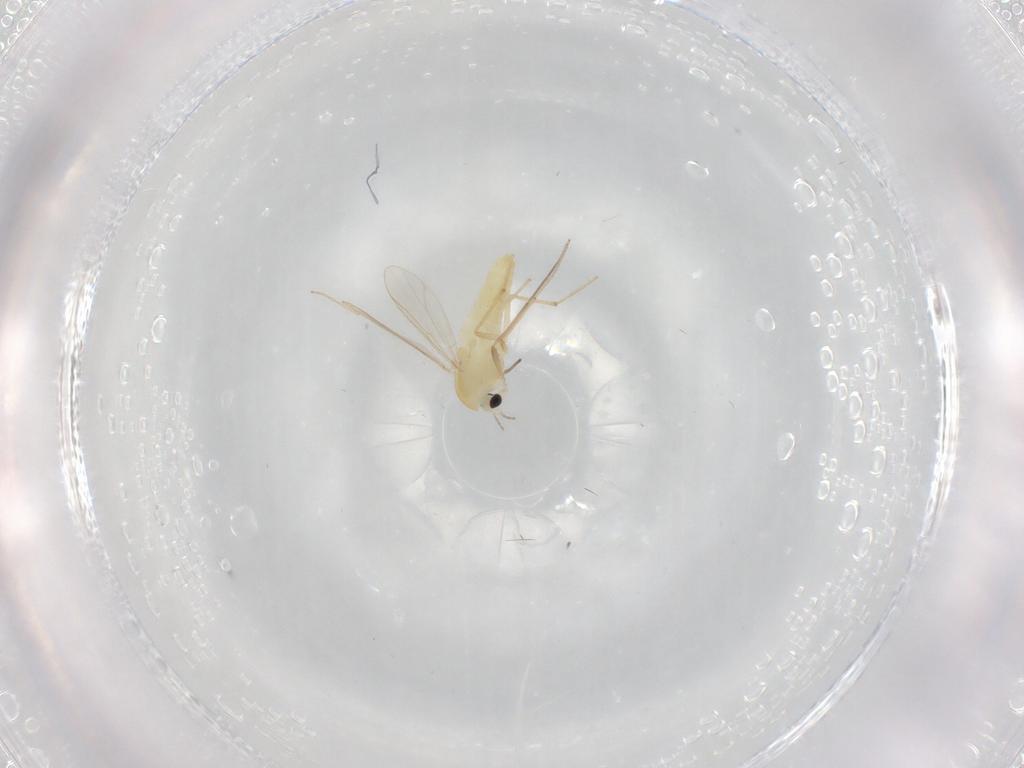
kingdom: Animalia
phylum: Arthropoda
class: Insecta
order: Diptera
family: Chironomidae
